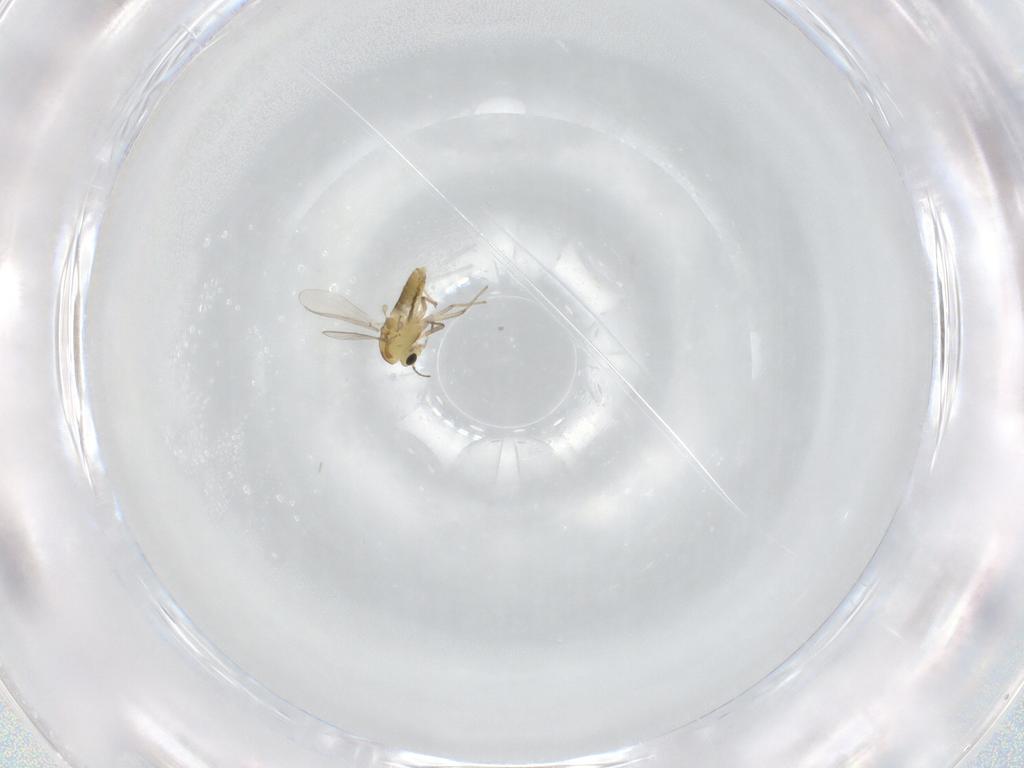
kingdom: Animalia
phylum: Arthropoda
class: Insecta
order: Diptera
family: Chironomidae
